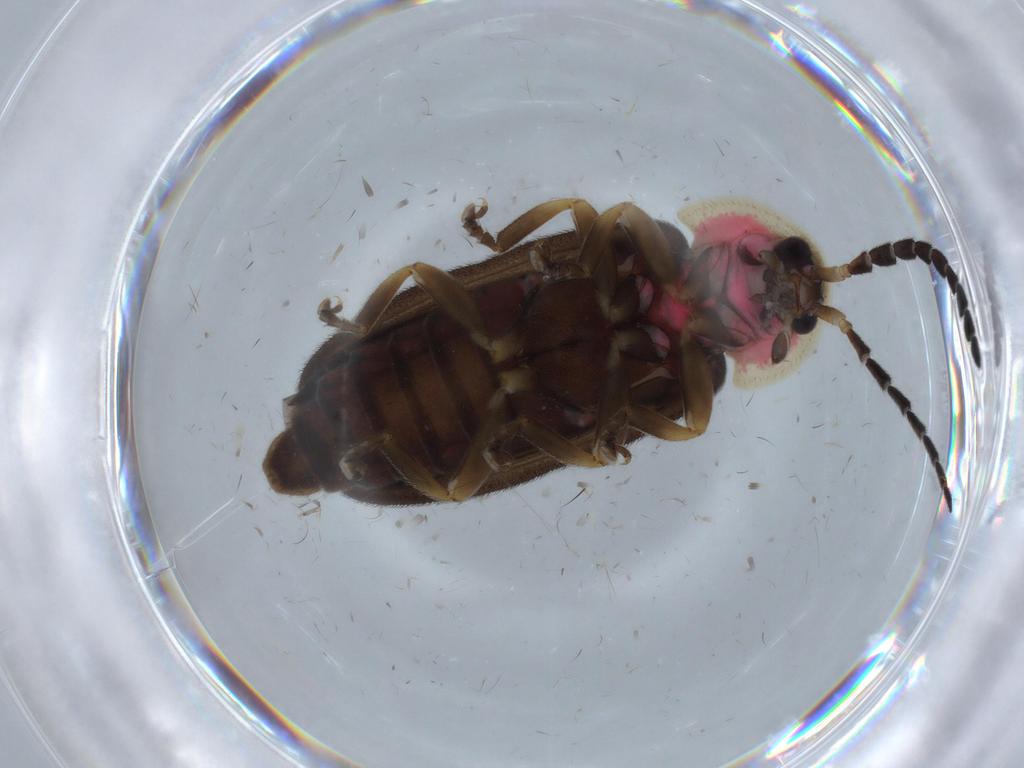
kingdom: Animalia
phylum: Arthropoda
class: Insecta
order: Coleoptera
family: Lampyridae
